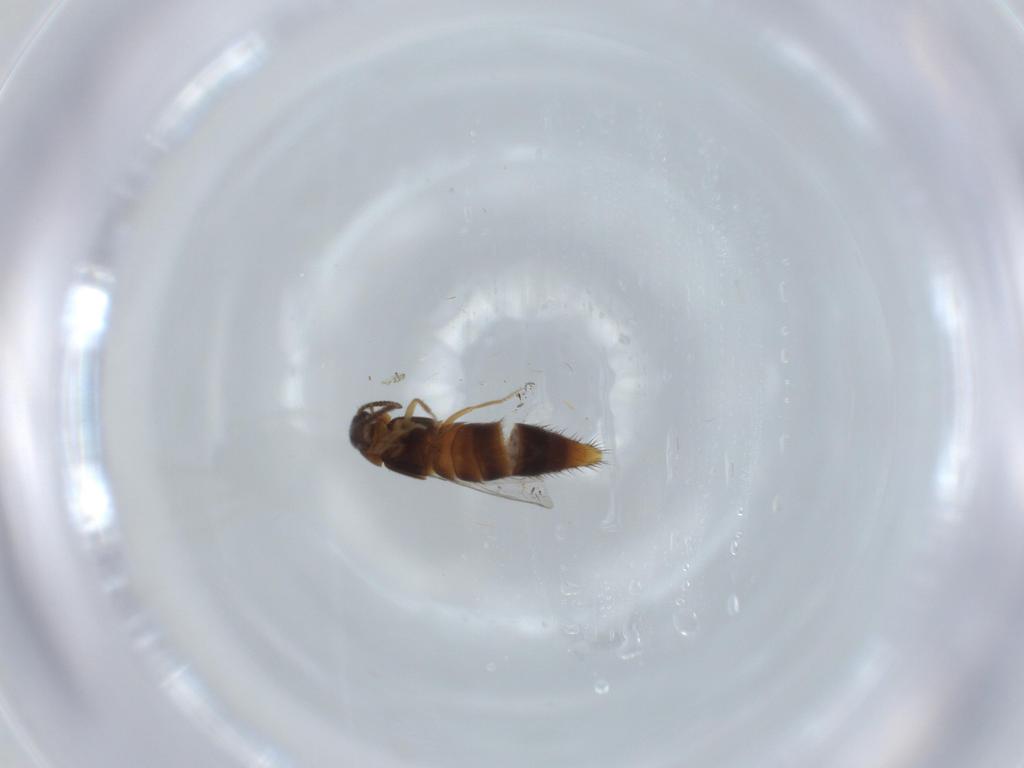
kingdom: Animalia
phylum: Arthropoda
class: Insecta
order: Coleoptera
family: Staphylinidae
